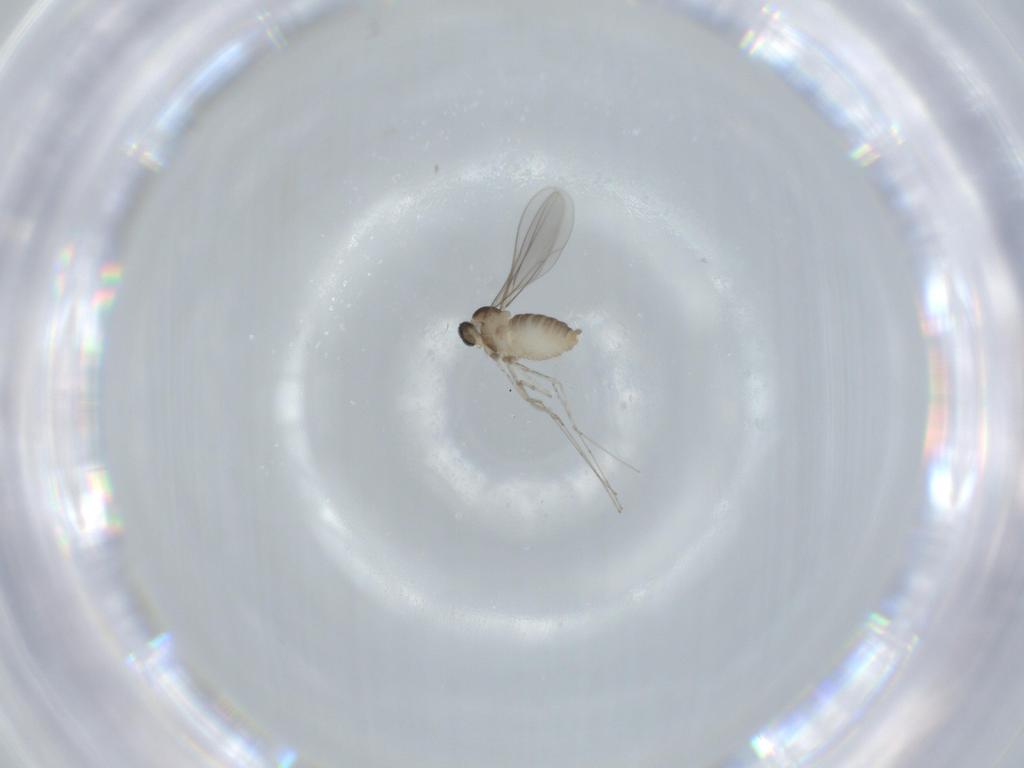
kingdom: Animalia
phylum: Arthropoda
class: Insecta
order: Diptera
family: Cecidomyiidae
